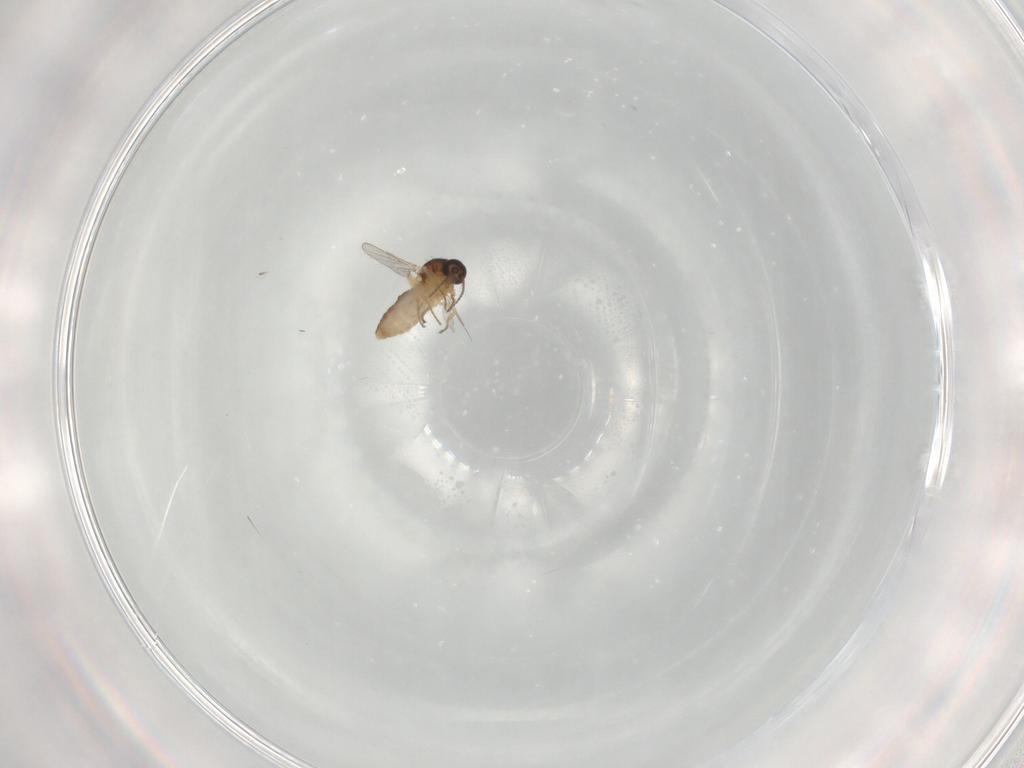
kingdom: Animalia
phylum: Arthropoda
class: Insecta
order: Diptera
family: Ceratopogonidae
